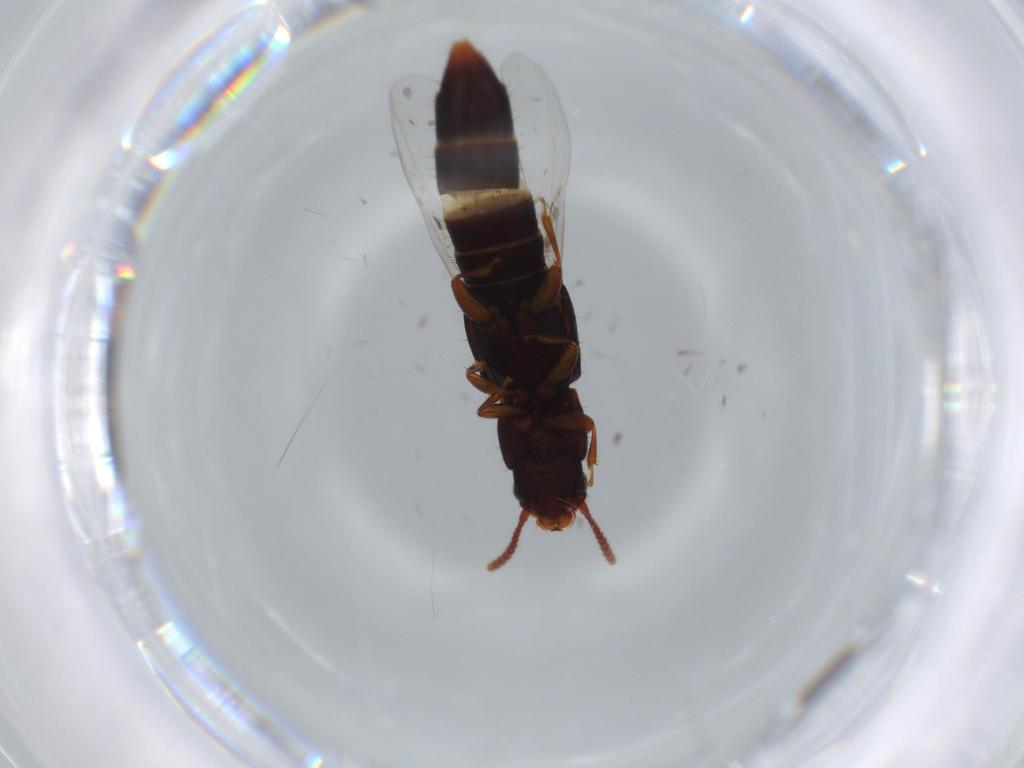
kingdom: Animalia
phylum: Arthropoda
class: Insecta
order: Coleoptera
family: Staphylinidae
